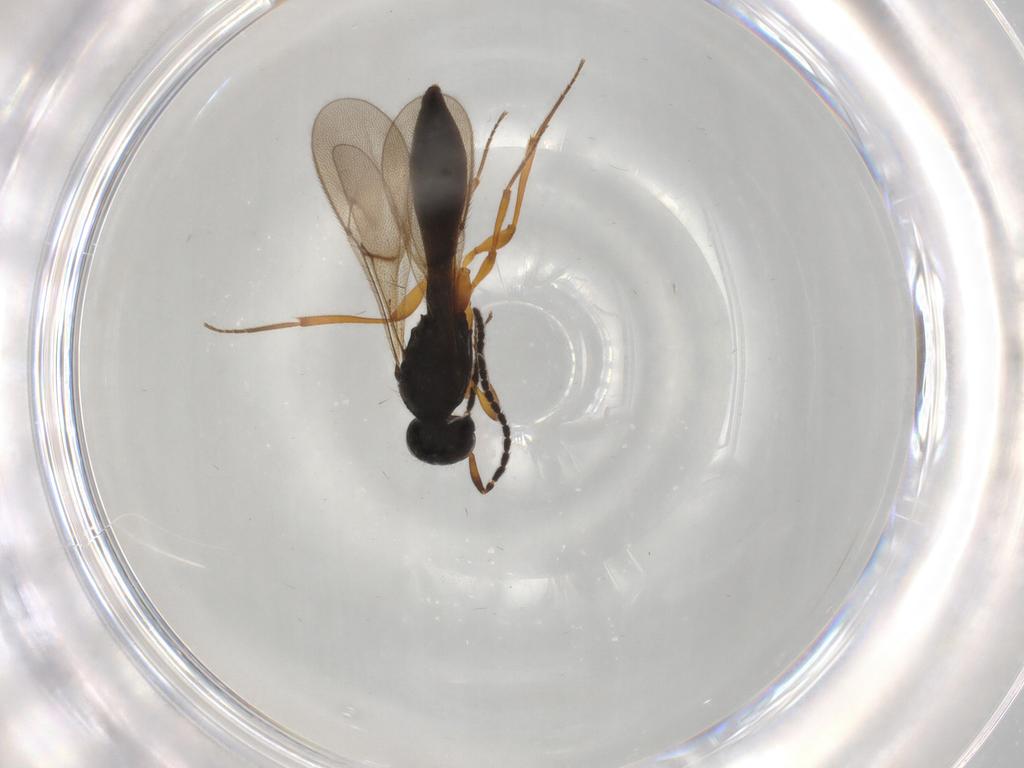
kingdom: Animalia
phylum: Arthropoda
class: Insecta
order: Hymenoptera
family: Scelionidae
